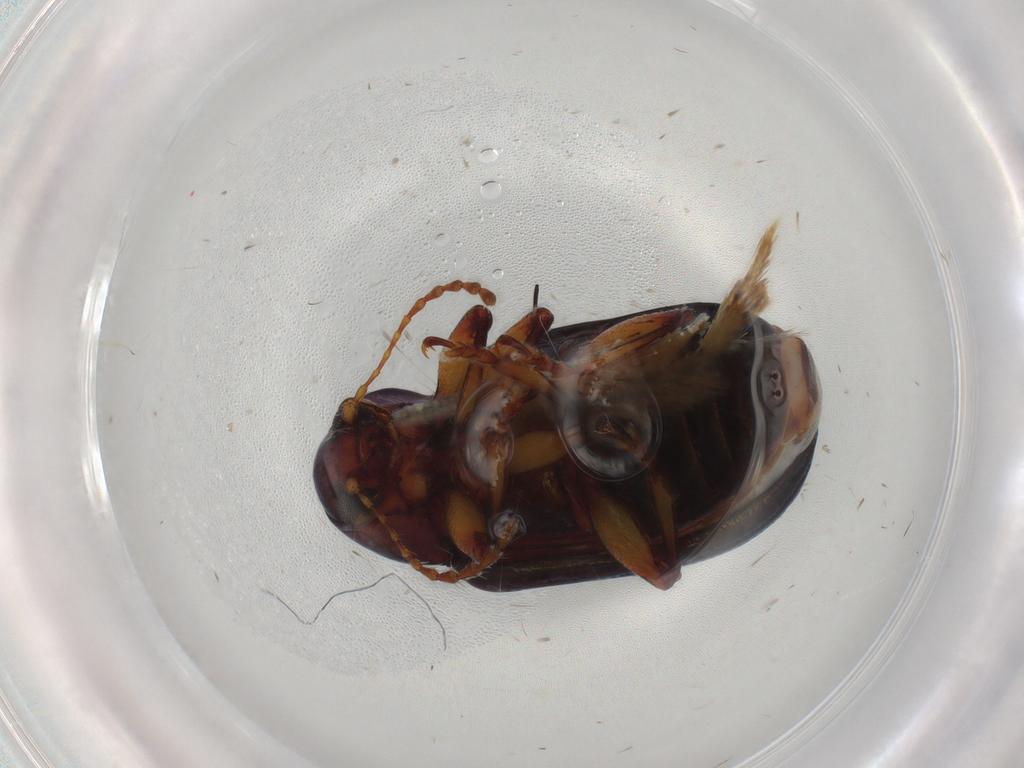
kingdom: Animalia
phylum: Arthropoda
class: Insecta
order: Coleoptera
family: Chrysomelidae
